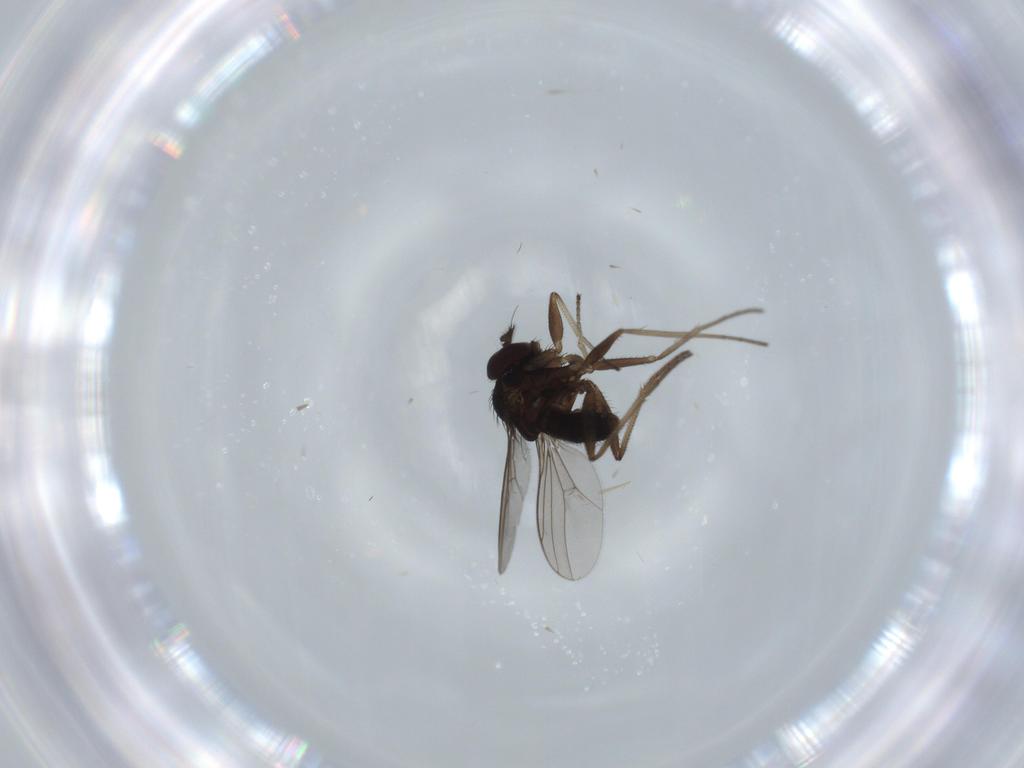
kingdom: Animalia
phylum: Arthropoda
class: Insecta
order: Diptera
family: Dolichopodidae
